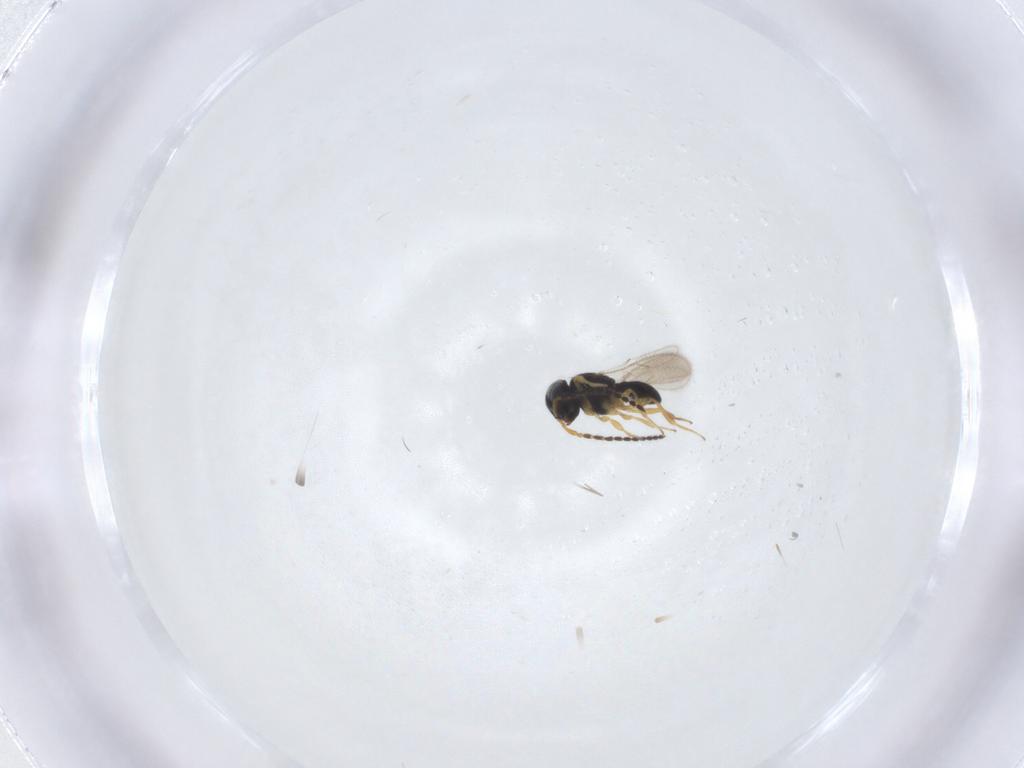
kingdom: Animalia
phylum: Arthropoda
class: Insecta
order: Hymenoptera
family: Scelionidae
